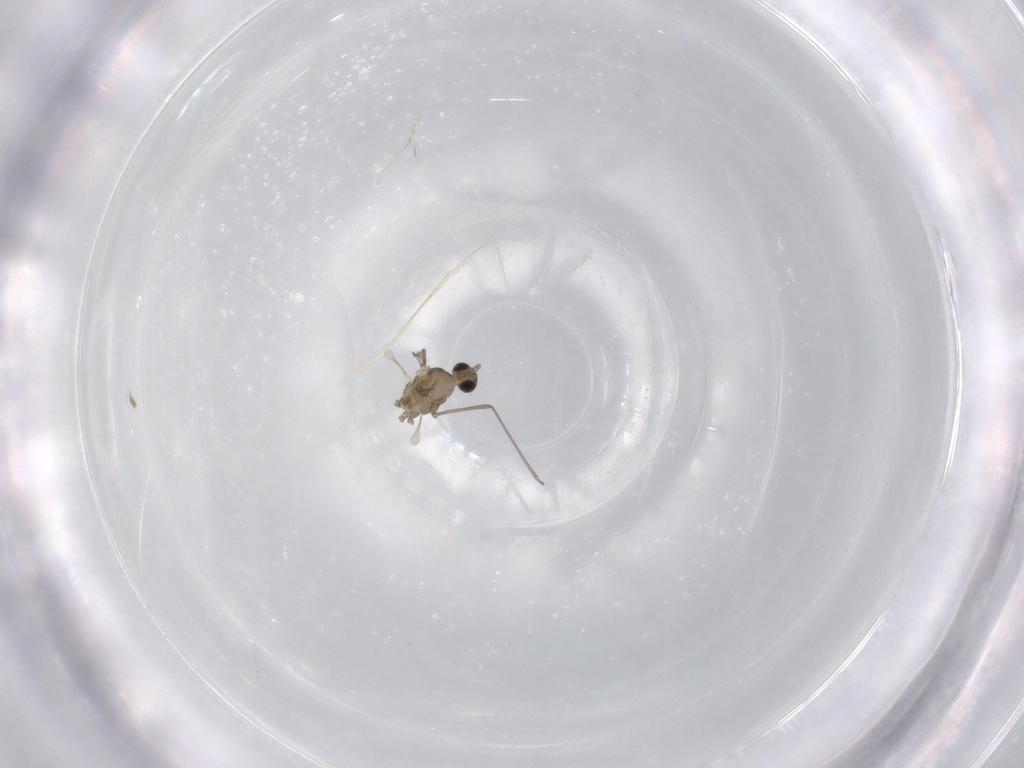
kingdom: Animalia
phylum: Arthropoda
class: Insecta
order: Diptera
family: Cecidomyiidae
